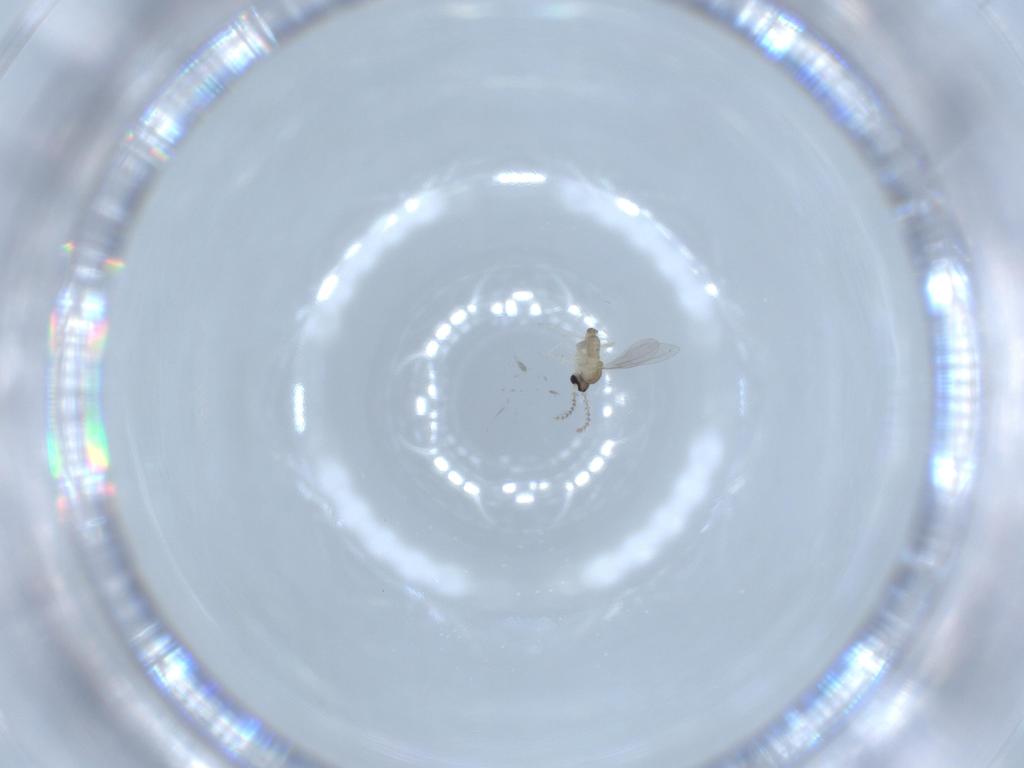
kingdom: Animalia
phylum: Arthropoda
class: Insecta
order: Diptera
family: Cecidomyiidae
